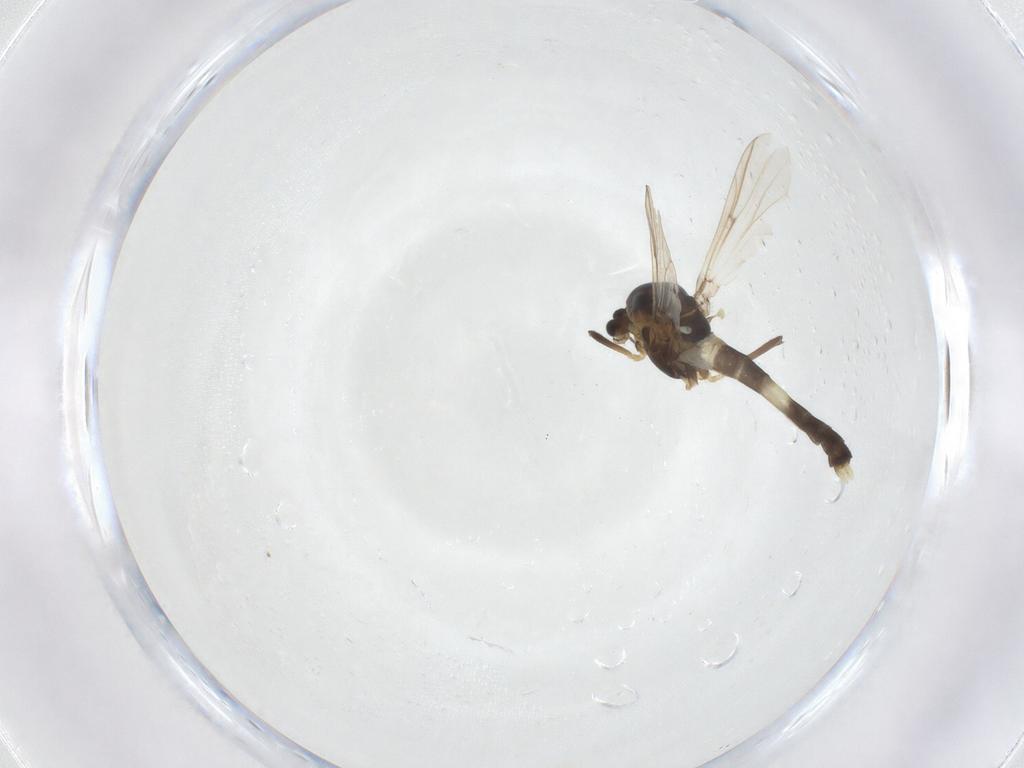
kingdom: Animalia
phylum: Arthropoda
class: Insecta
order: Diptera
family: Chironomidae
